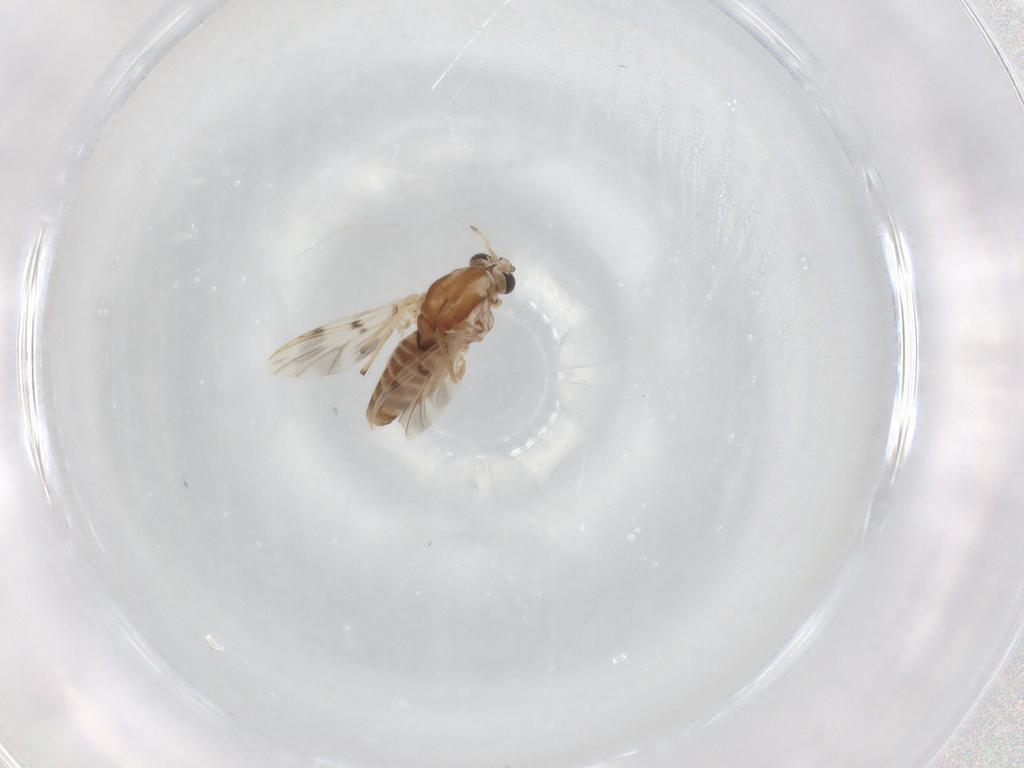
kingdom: Animalia
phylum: Arthropoda
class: Insecta
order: Diptera
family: Chironomidae
